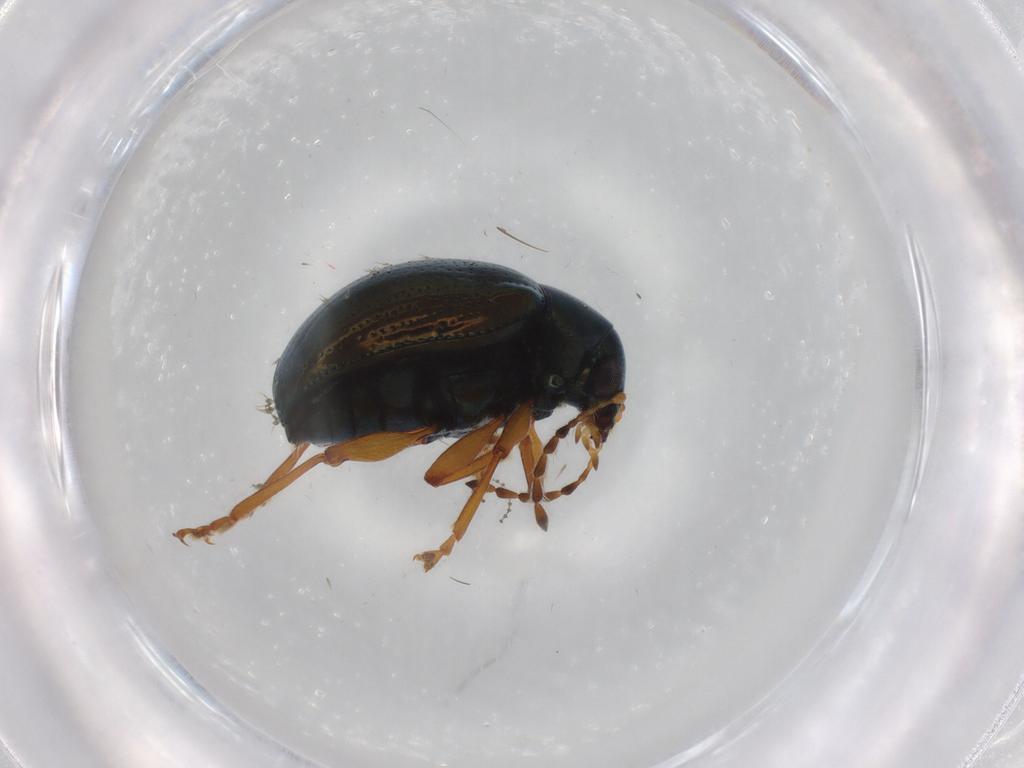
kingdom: Animalia
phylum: Arthropoda
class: Insecta
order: Coleoptera
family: Chrysomelidae
